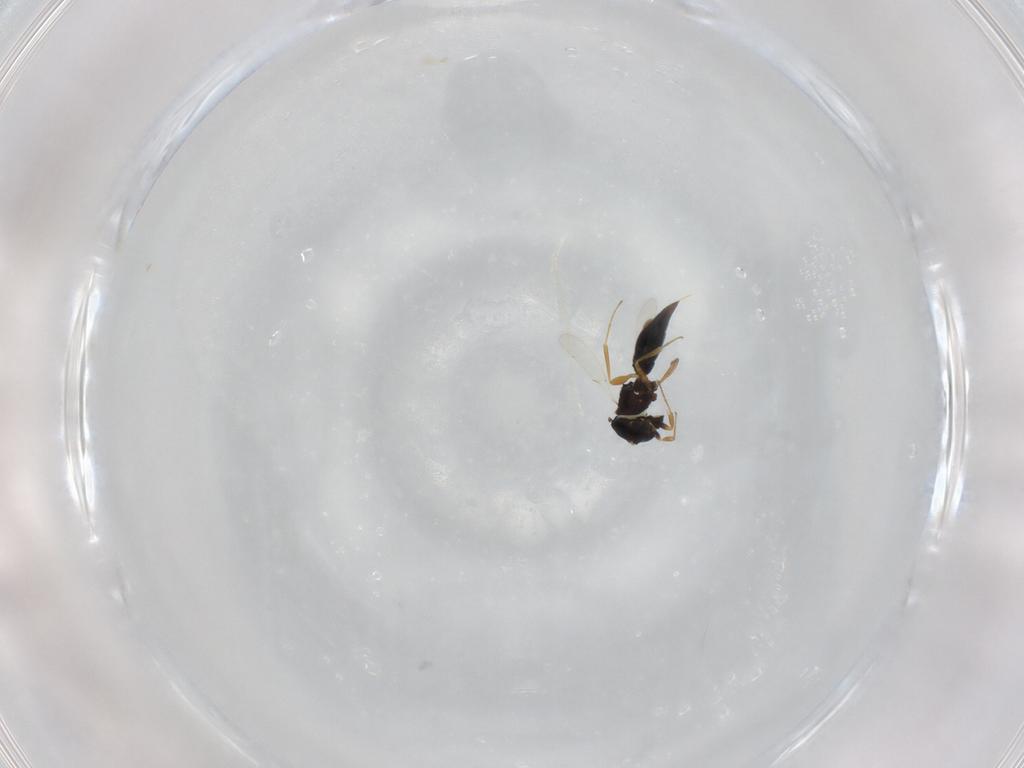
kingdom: Animalia
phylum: Arthropoda
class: Insecta
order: Hymenoptera
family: Scelionidae
